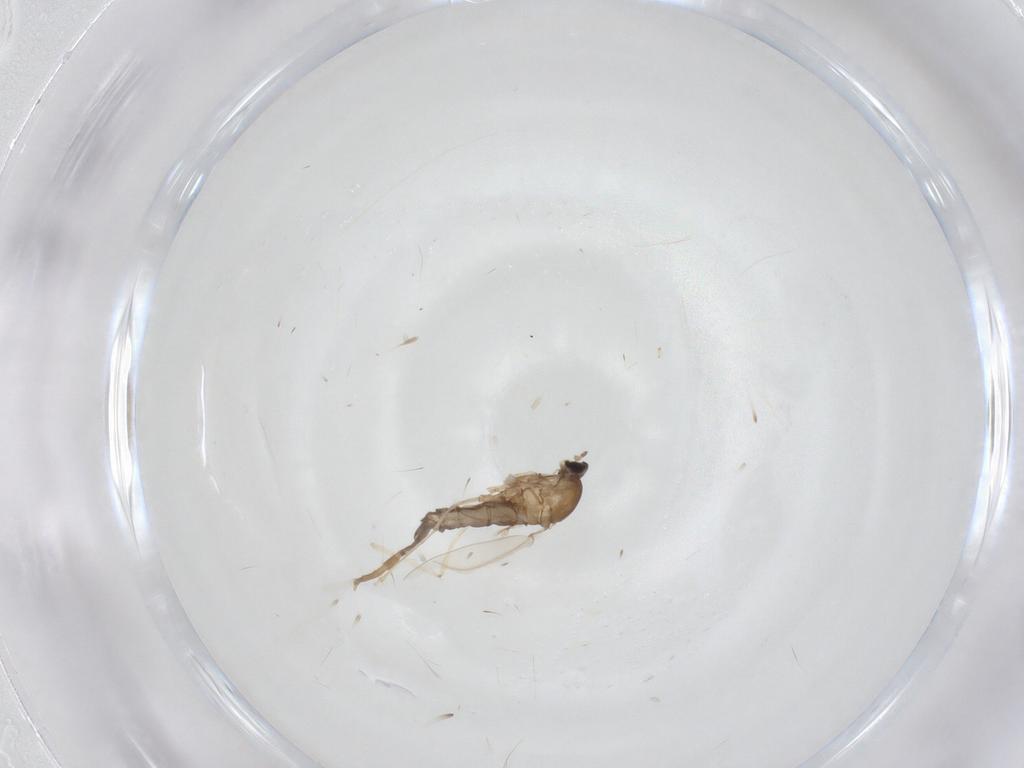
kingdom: Animalia
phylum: Arthropoda
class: Insecta
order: Diptera
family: Cecidomyiidae
